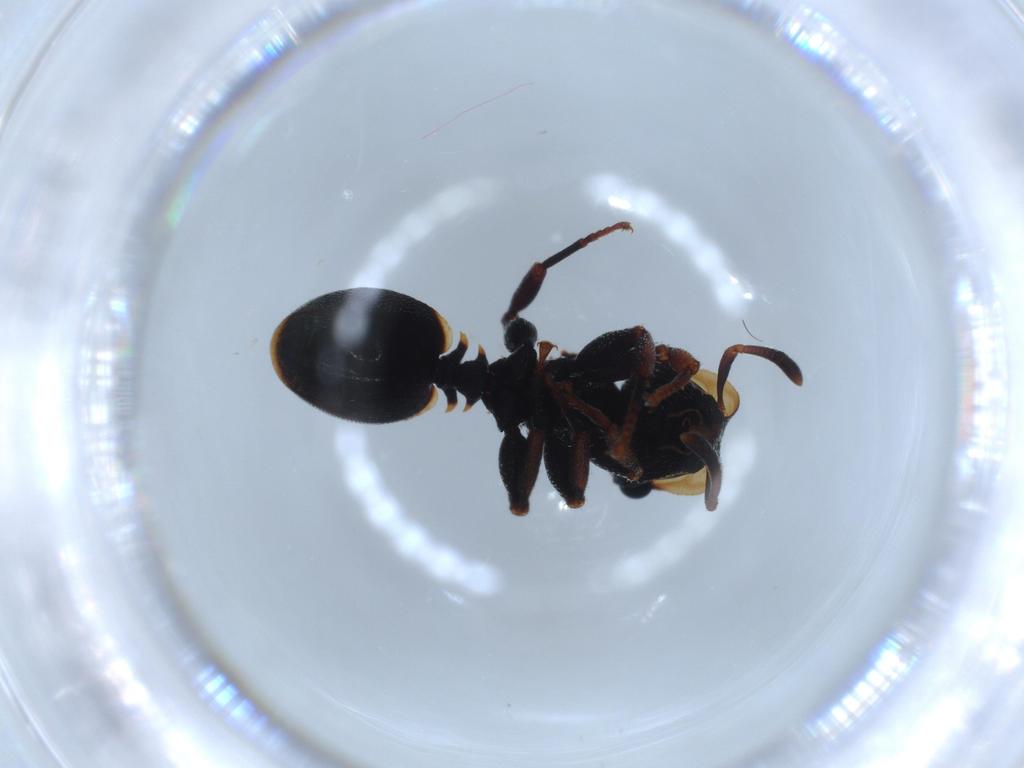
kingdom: Animalia
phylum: Arthropoda
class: Insecta
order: Hymenoptera
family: Formicidae
